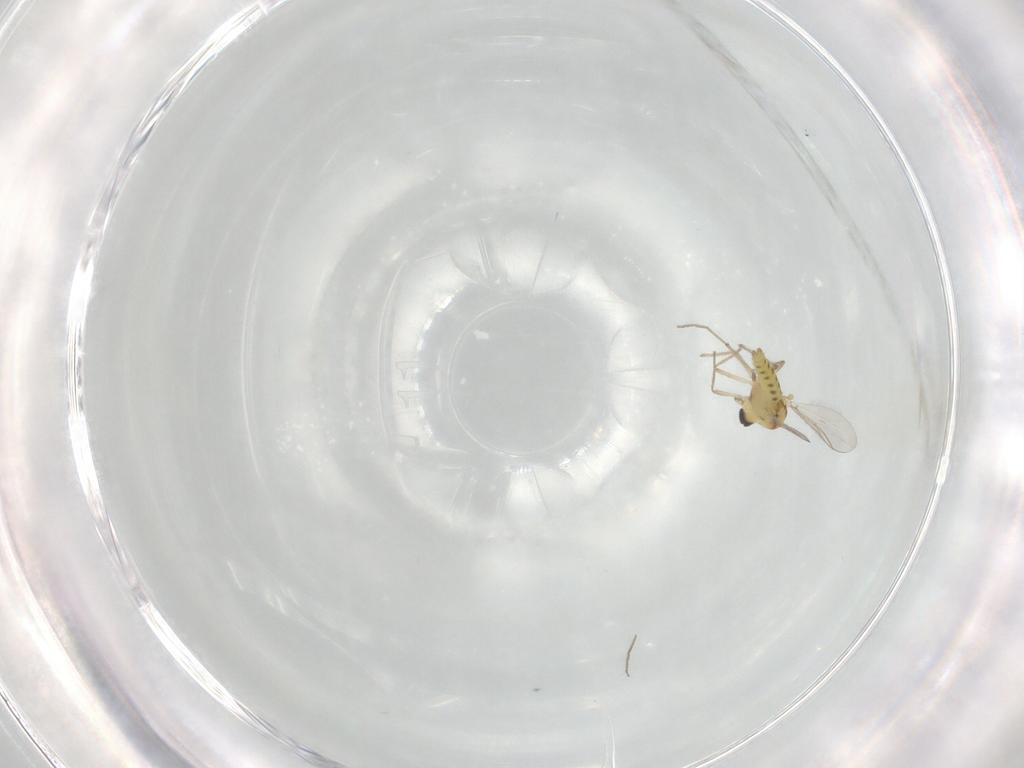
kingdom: Animalia
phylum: Arthropoda
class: Insecta
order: Diptera
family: Chironomidae
